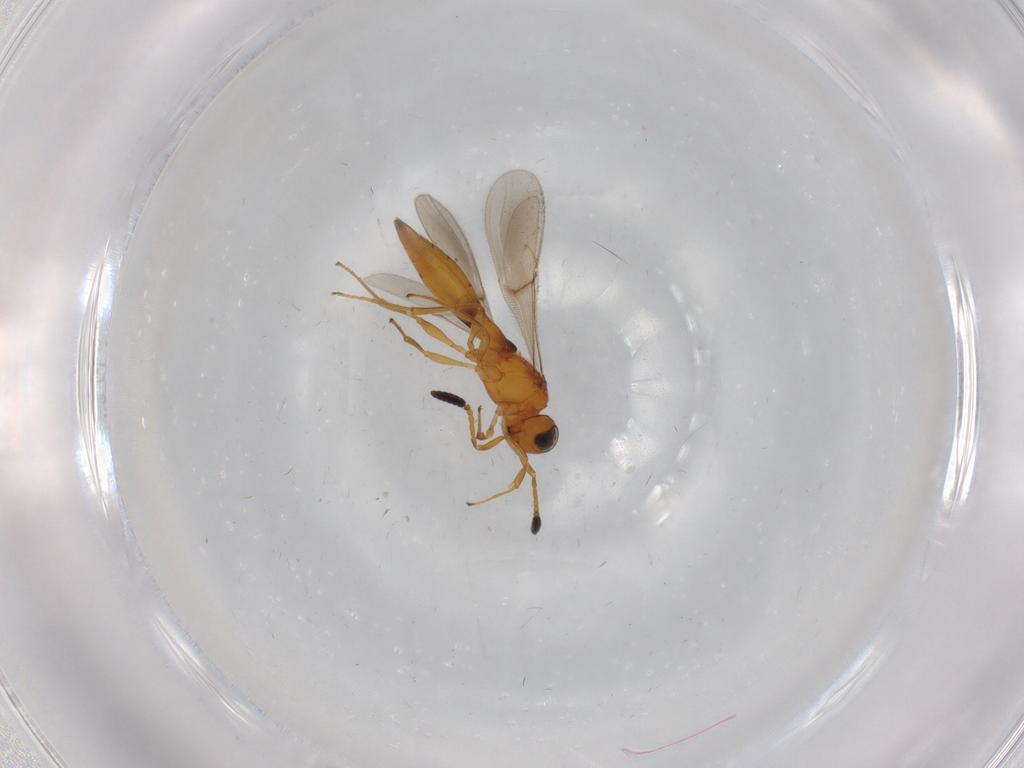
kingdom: Animalia
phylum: Arthropoda
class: Insecta
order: Hymenoptera
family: Scelionidae
